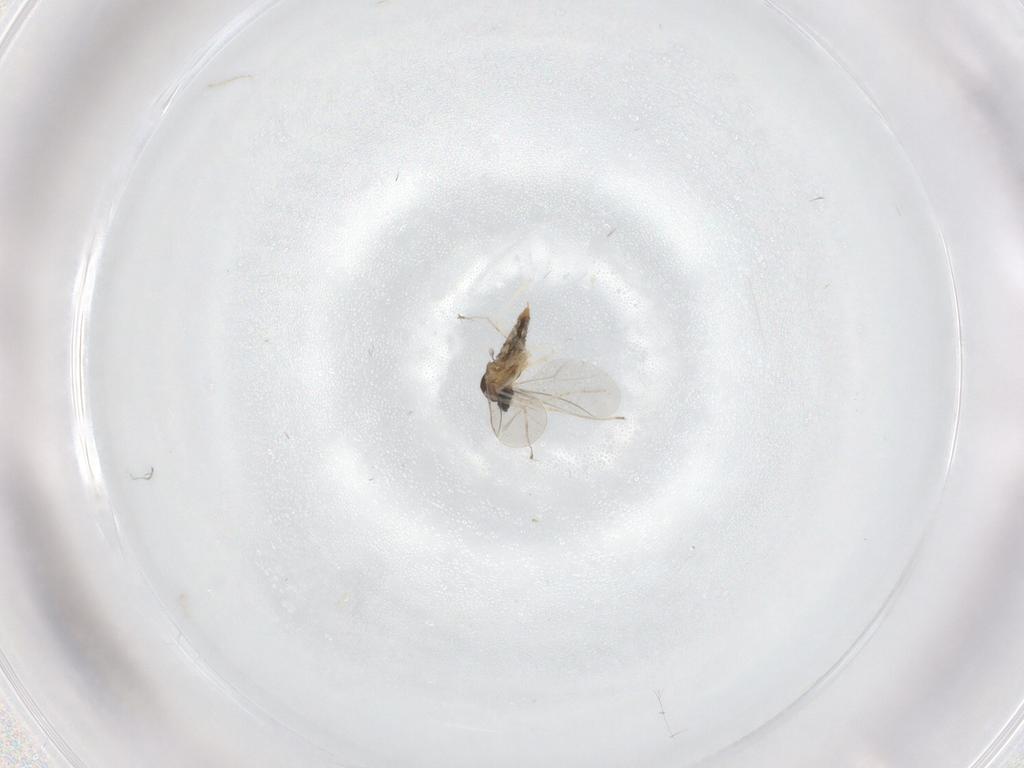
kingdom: Animalia
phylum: Arthropoda
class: Insecta
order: Diptera
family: Cecidomyiidae
